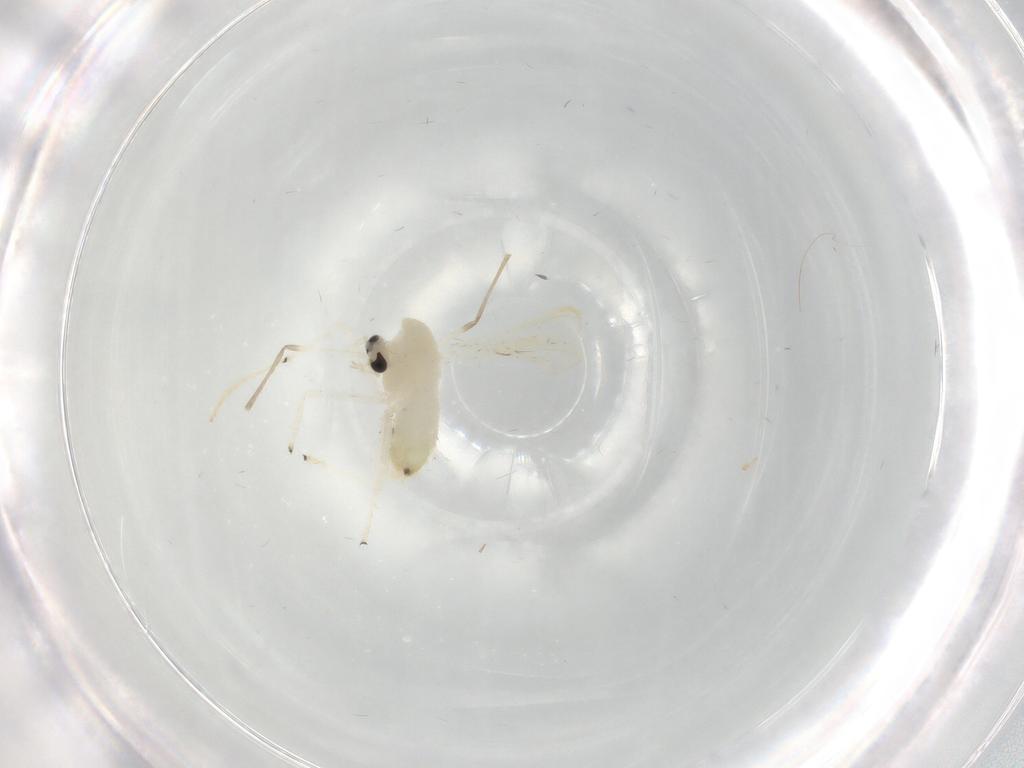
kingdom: Animalia
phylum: Arthropoda
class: Insecta
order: Diptera
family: Chironomidae
